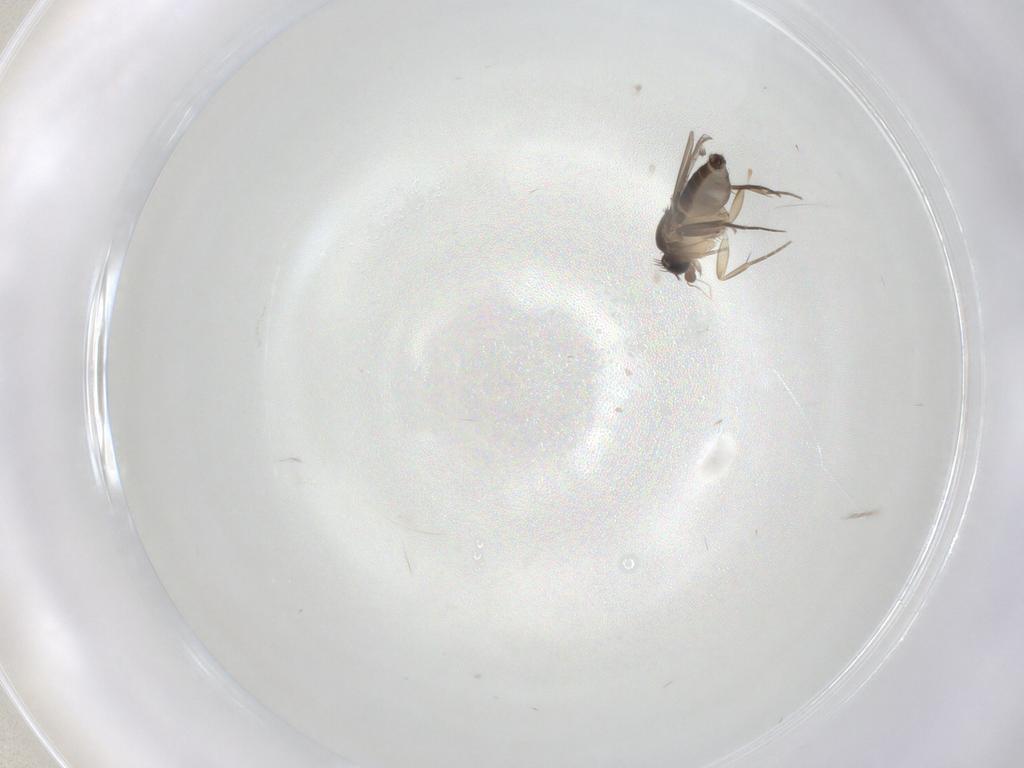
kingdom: Animalia
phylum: Arthropoda
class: Insecta
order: Diptera
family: Phoridae
